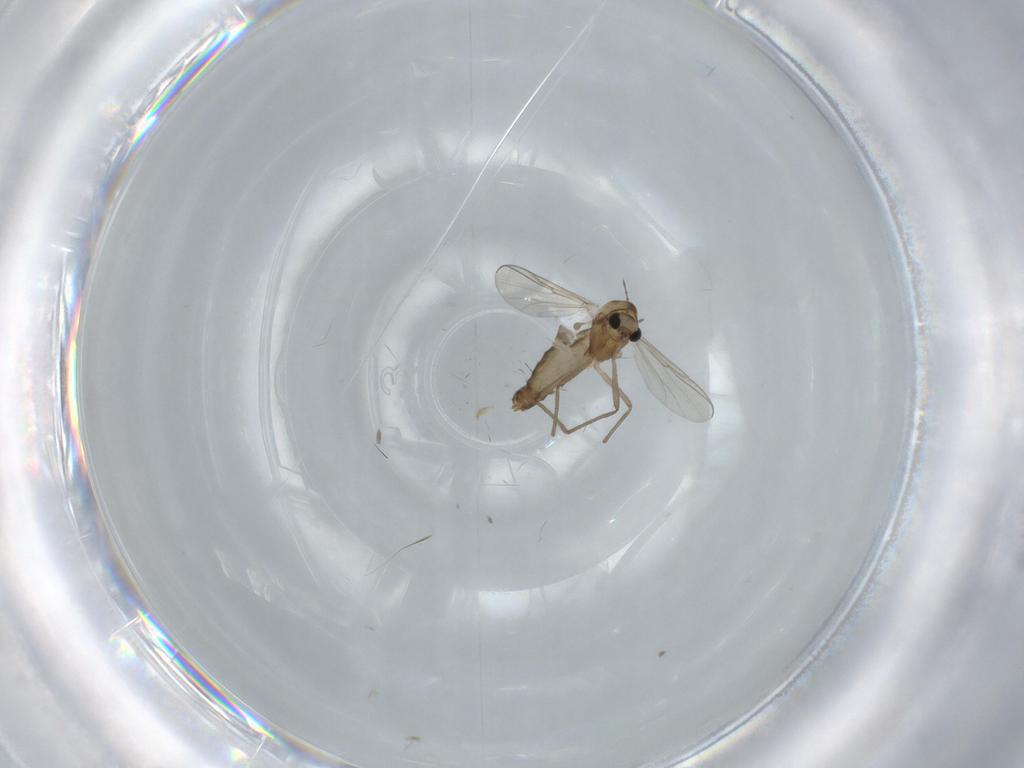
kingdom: Animalia
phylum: Arthropoda
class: Insecta
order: Diptera
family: Chironomidae
